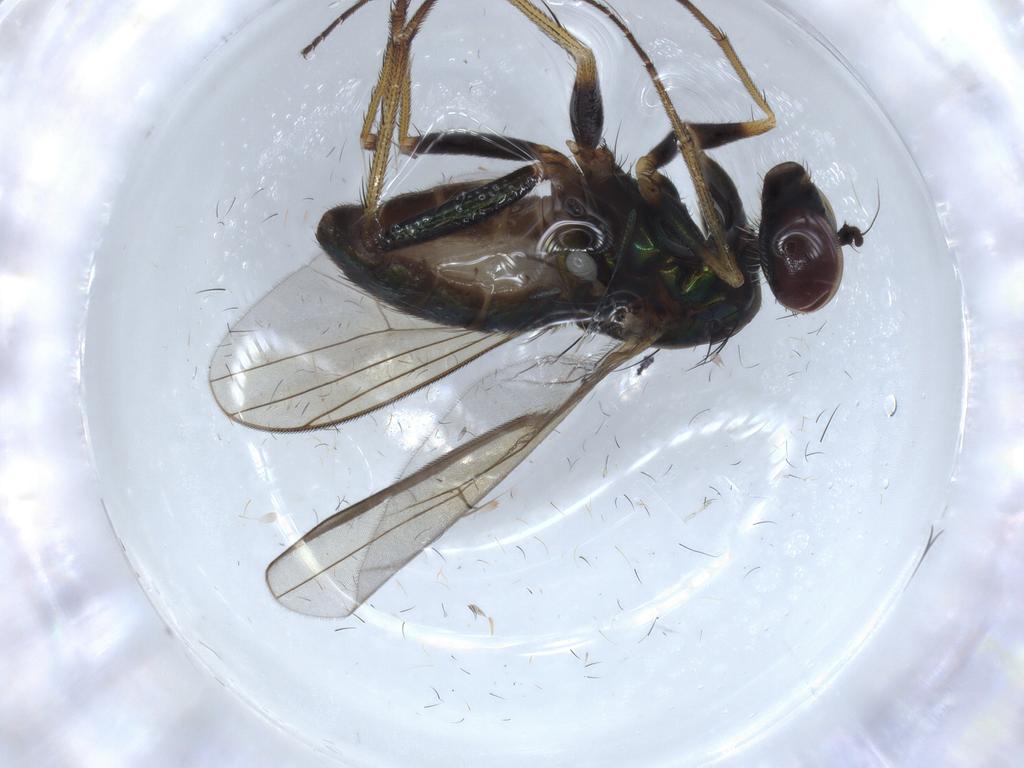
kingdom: Animalia
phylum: Arthropoda
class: Insecta
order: Diptera
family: Dolichopodidae
